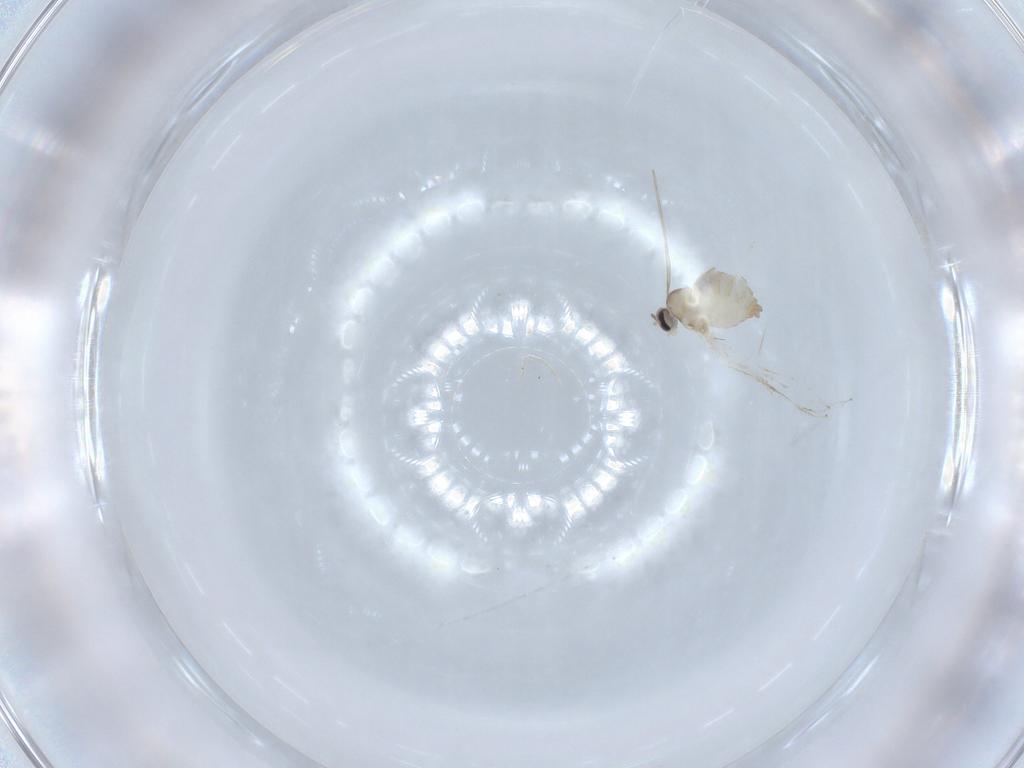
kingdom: Animalia
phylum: Arthropoda
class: Insecta
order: Diptera
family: Cecidomyiidae
